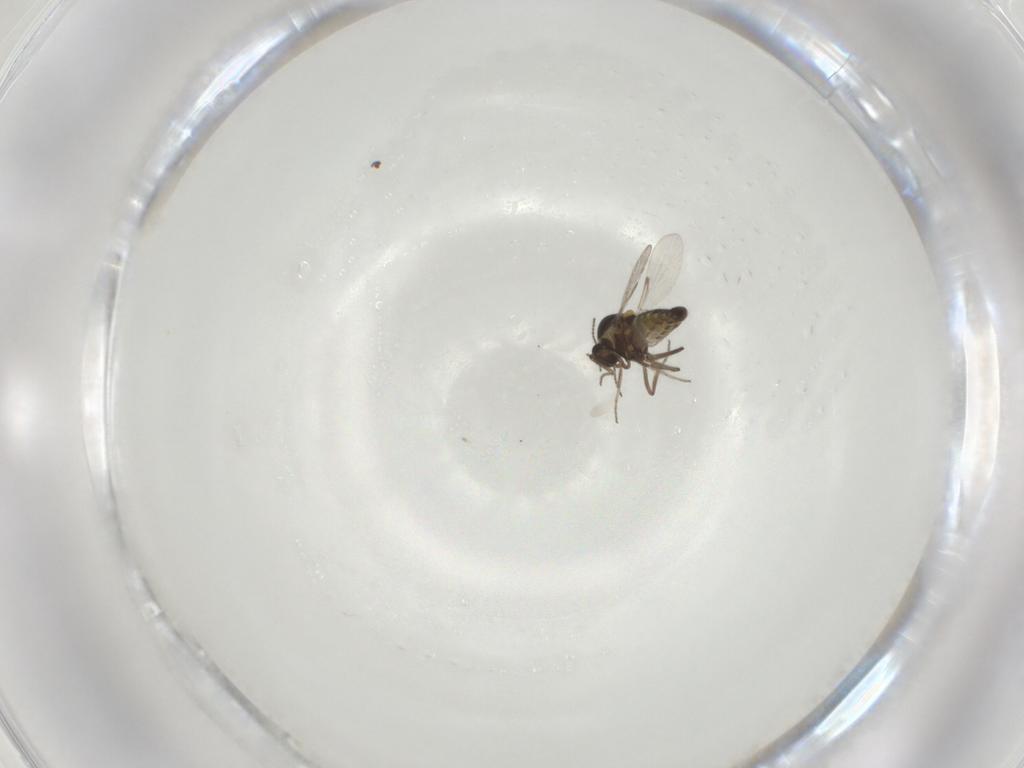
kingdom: Animalia
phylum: Arthropoda
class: Insecta
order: Diptera
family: Ceratopogonidae
